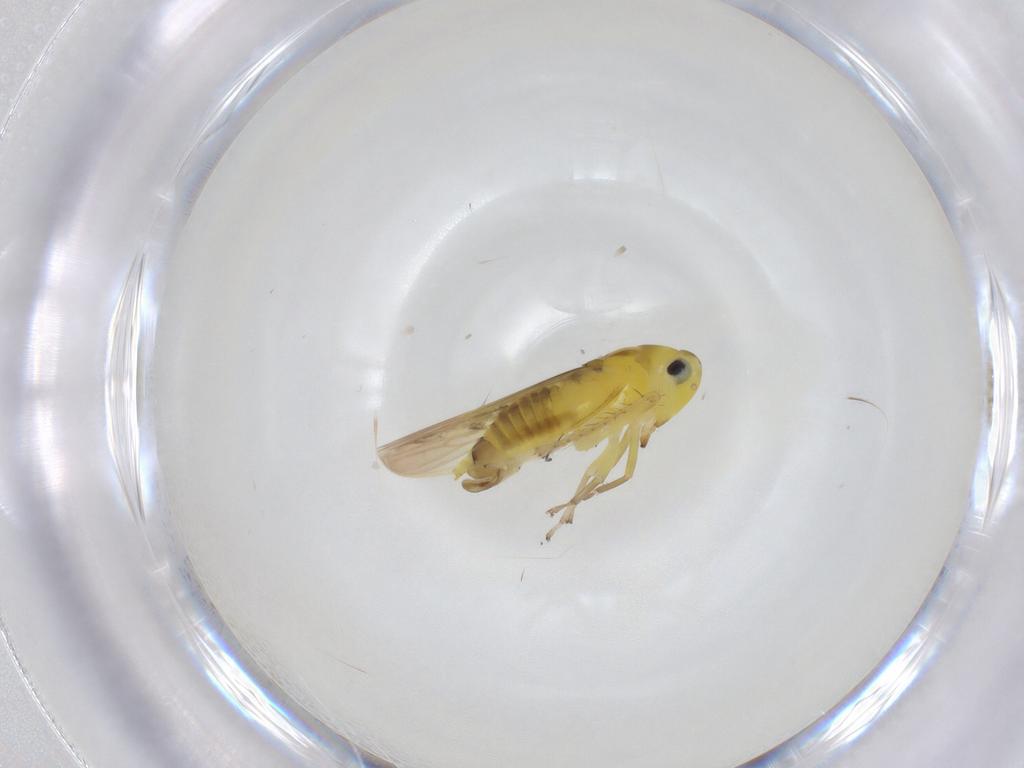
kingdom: Animalia
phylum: Arthropoda
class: Insecta
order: Hemiptera
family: Cicadellidae
